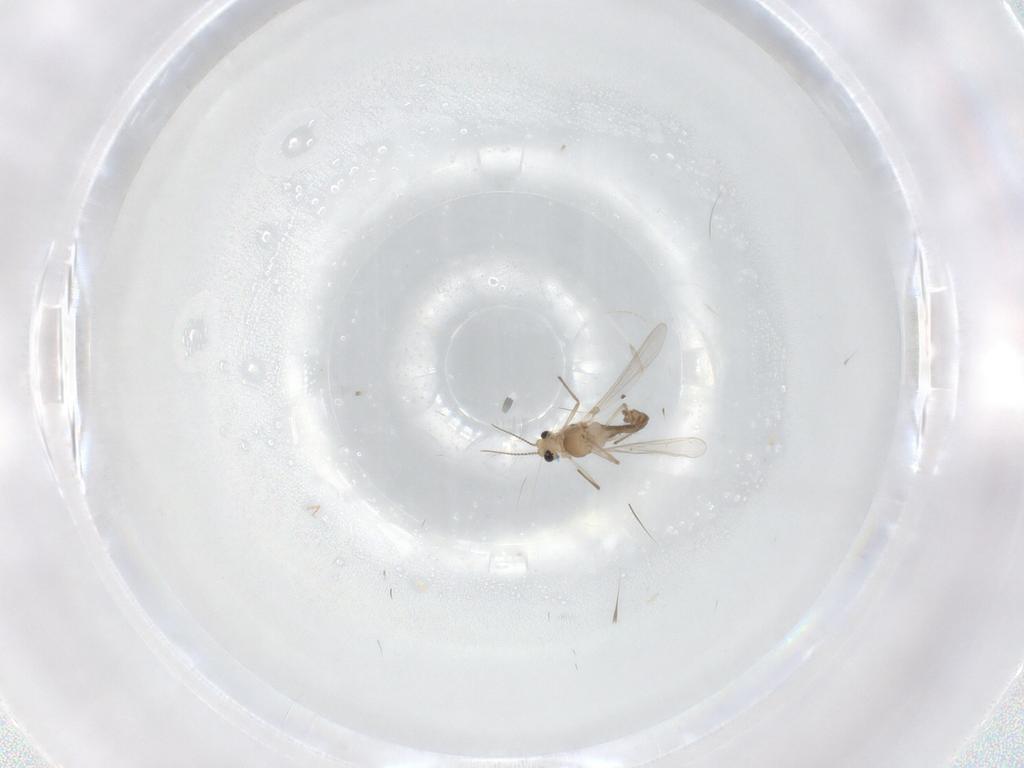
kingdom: Animalia
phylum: Arthropoda
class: Insecta
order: Diptera
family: Chironomidae
